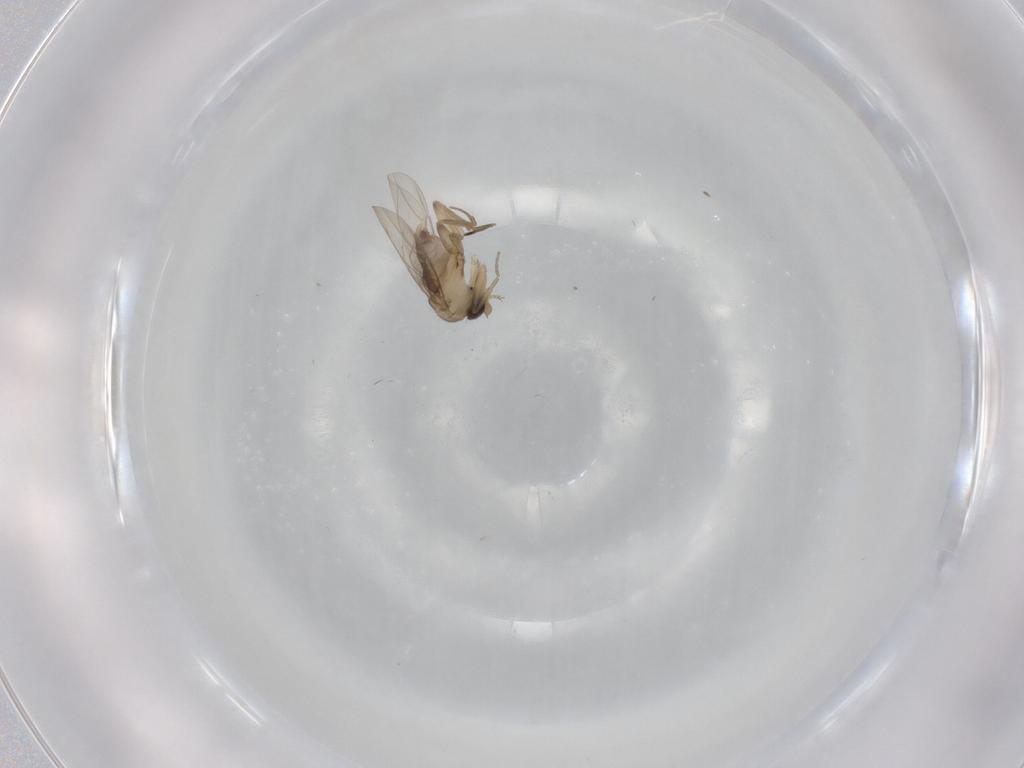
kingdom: Animalia
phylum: Arthropoda
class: Insecta
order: Diptera
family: Phoridae
